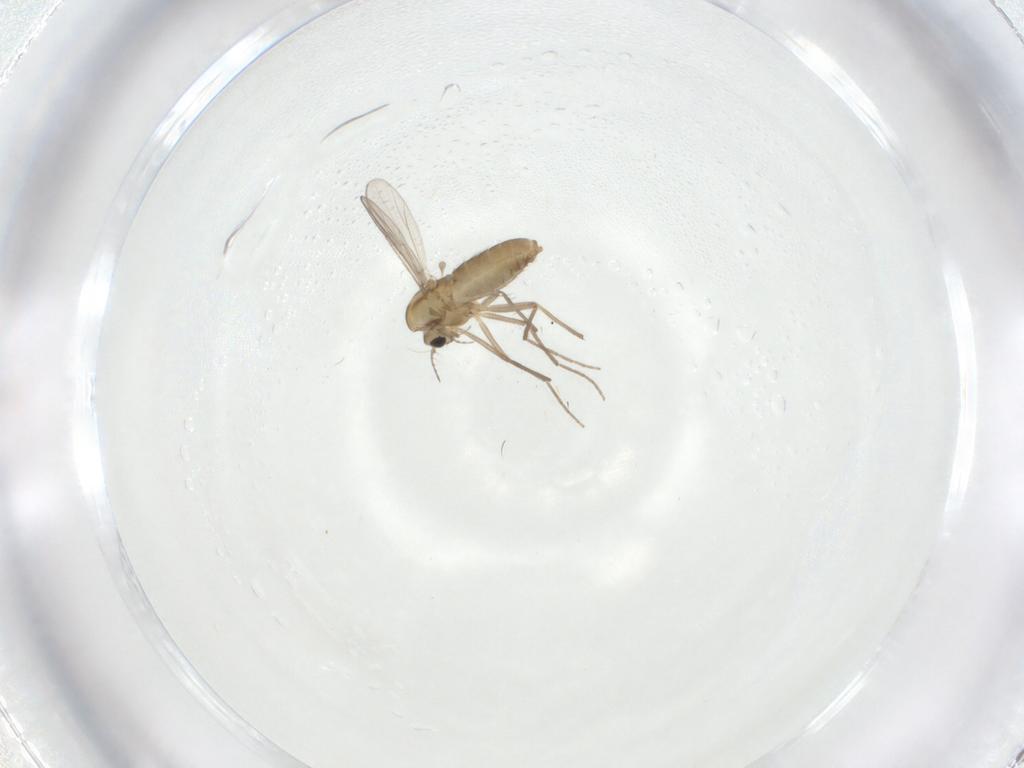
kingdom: Animalia
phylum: Arthropoda
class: Insecta
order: Diptera
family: Chironomidae
